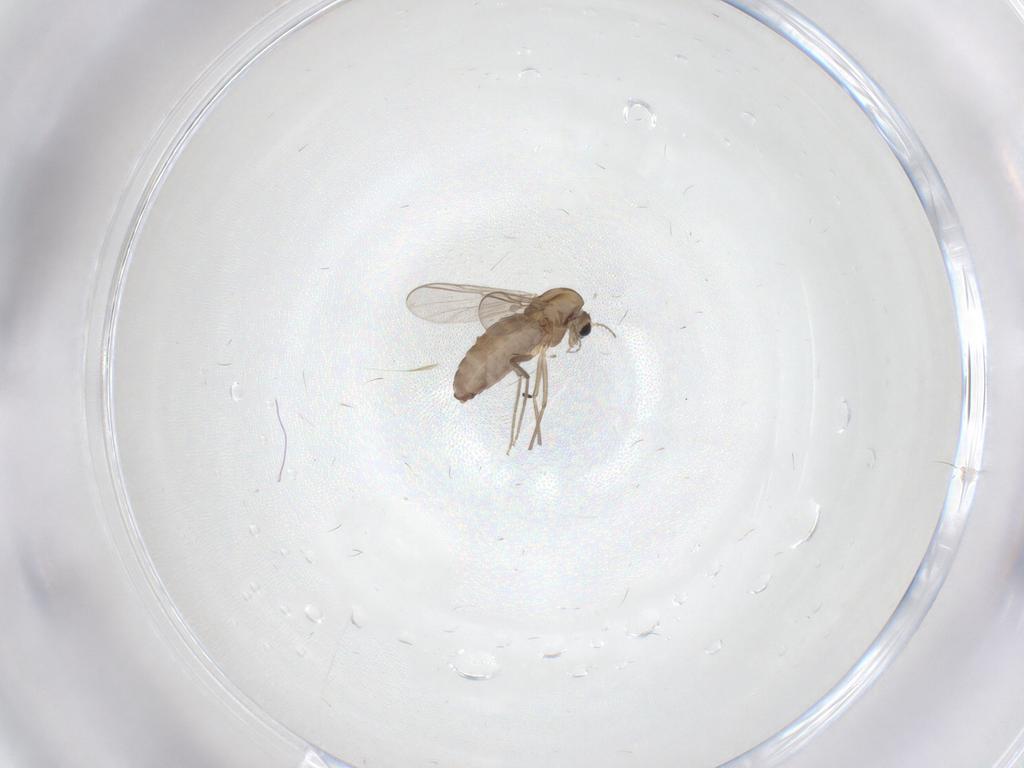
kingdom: Animalia
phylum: Arthropoda
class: Insecta
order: Diptera
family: Chironomidae
